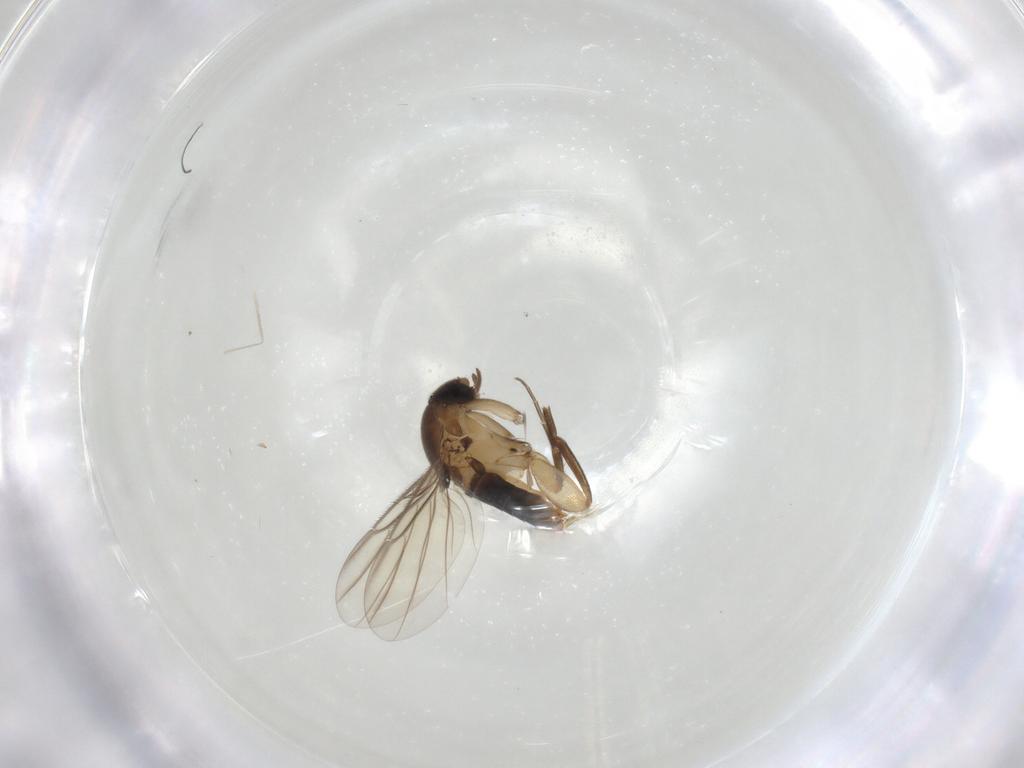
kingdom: Animalia
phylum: Arthropoda
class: Insecta
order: Diptera
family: Phoridae
